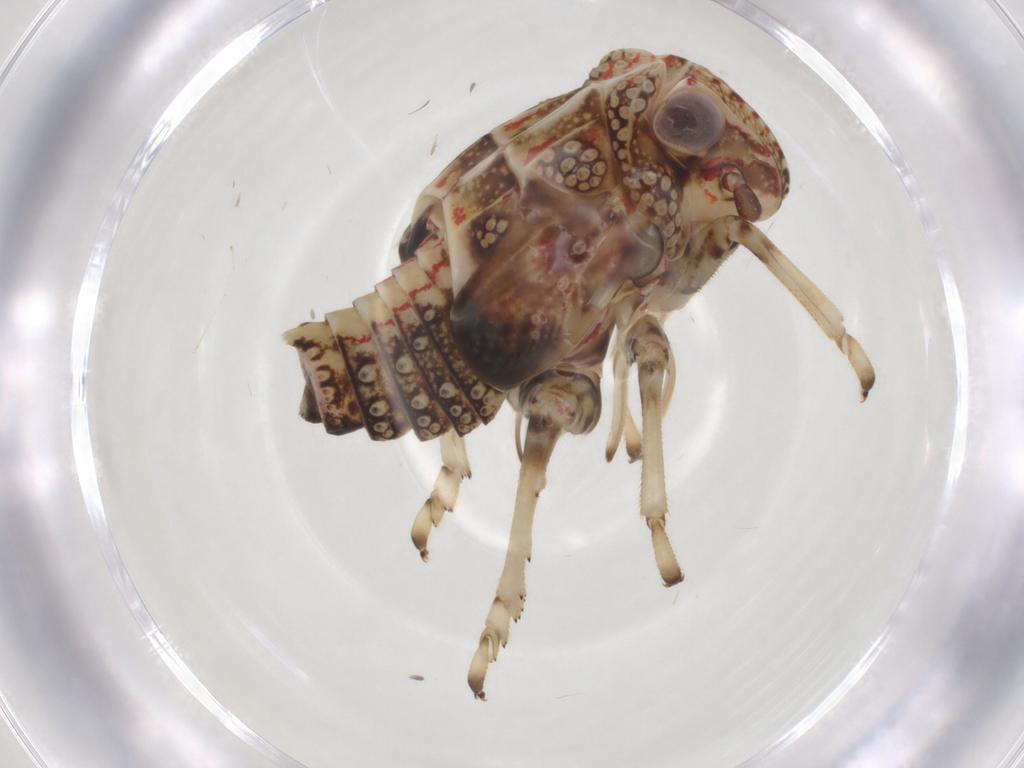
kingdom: Animalia
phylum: Arthropoda
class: Insecta
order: Hemiptera
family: Tropiduchidae
